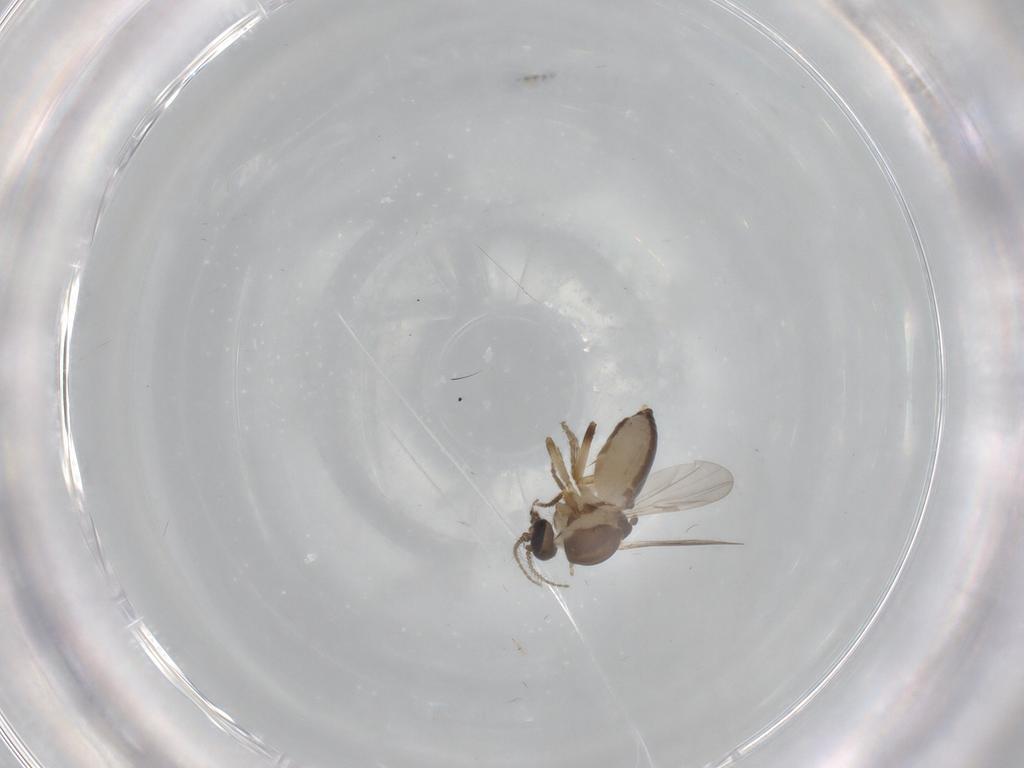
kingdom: Animalia
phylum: Arthropoda
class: Insecta
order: Diptera
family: Ceratopogonidae
